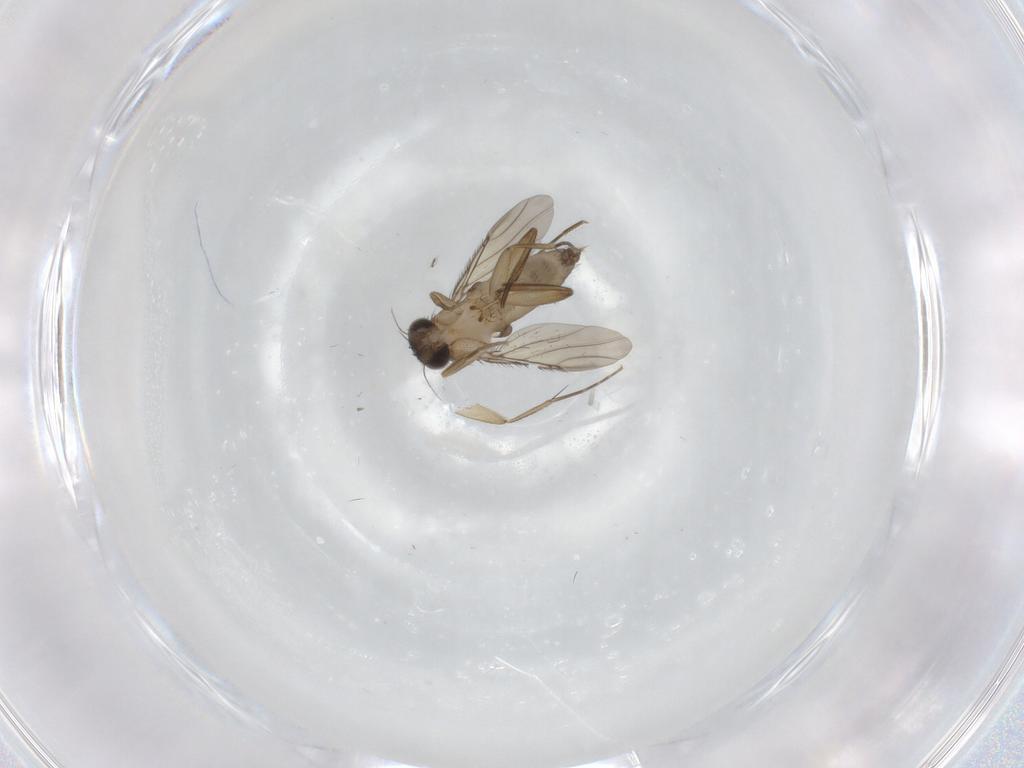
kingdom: Animalia
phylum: Arthropoda
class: Insecta
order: Diptera
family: Phoridae
